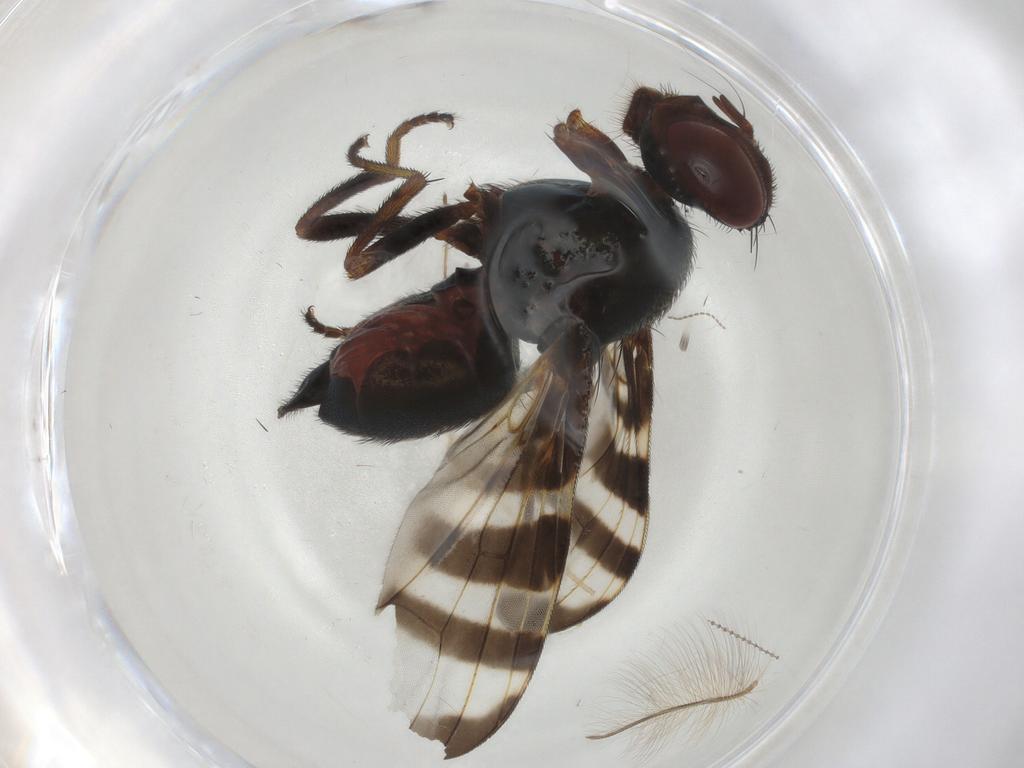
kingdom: Animalia
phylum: Arthropoda
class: Insecta
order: Diptera
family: Platystomatidae
